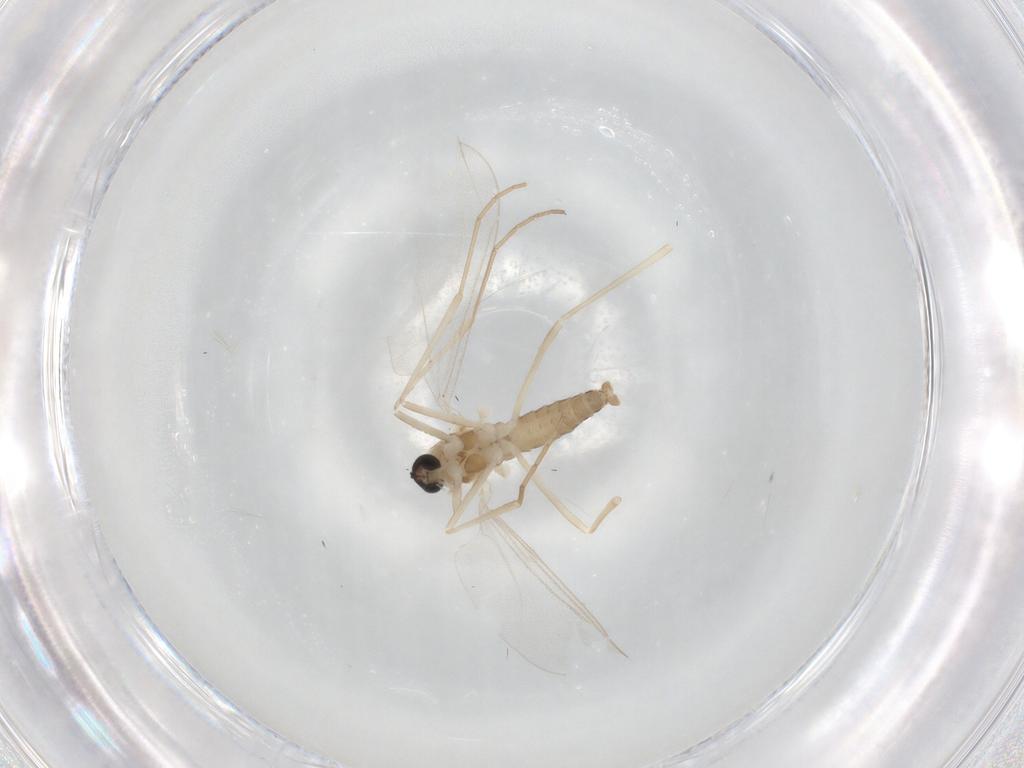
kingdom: Animalia
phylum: Arthropoda
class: Insecta
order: Diptera
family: Cecidomyiidae
